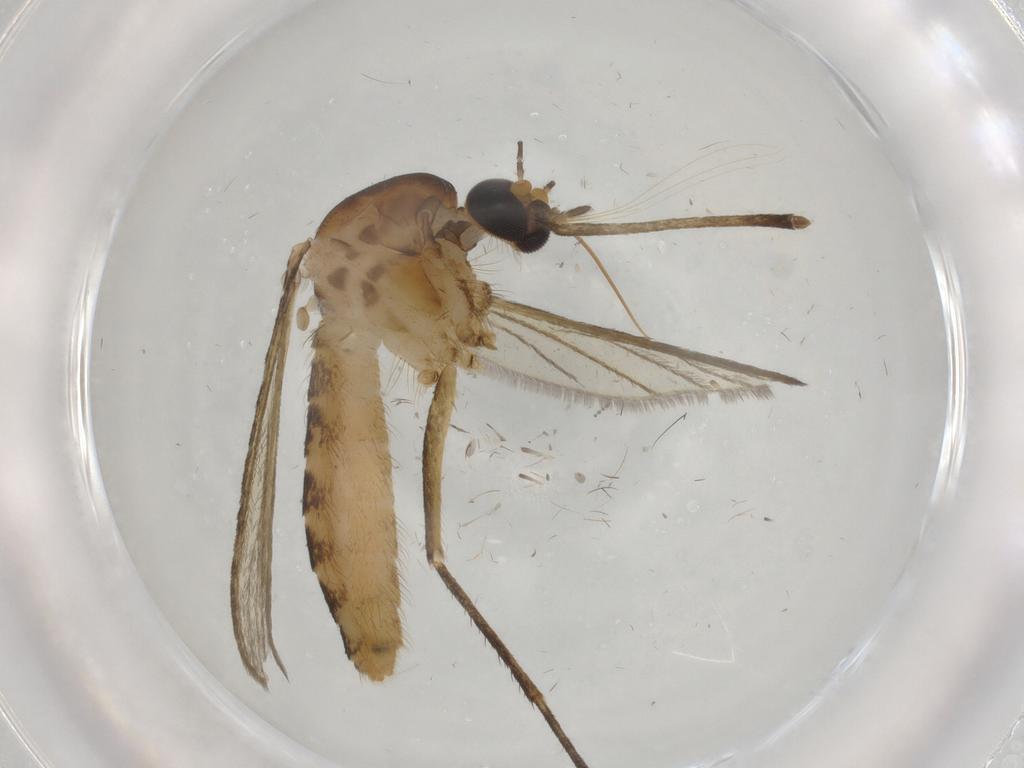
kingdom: Animalia
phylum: Arthropoda
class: Insecta
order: Diptera
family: Culicidae
